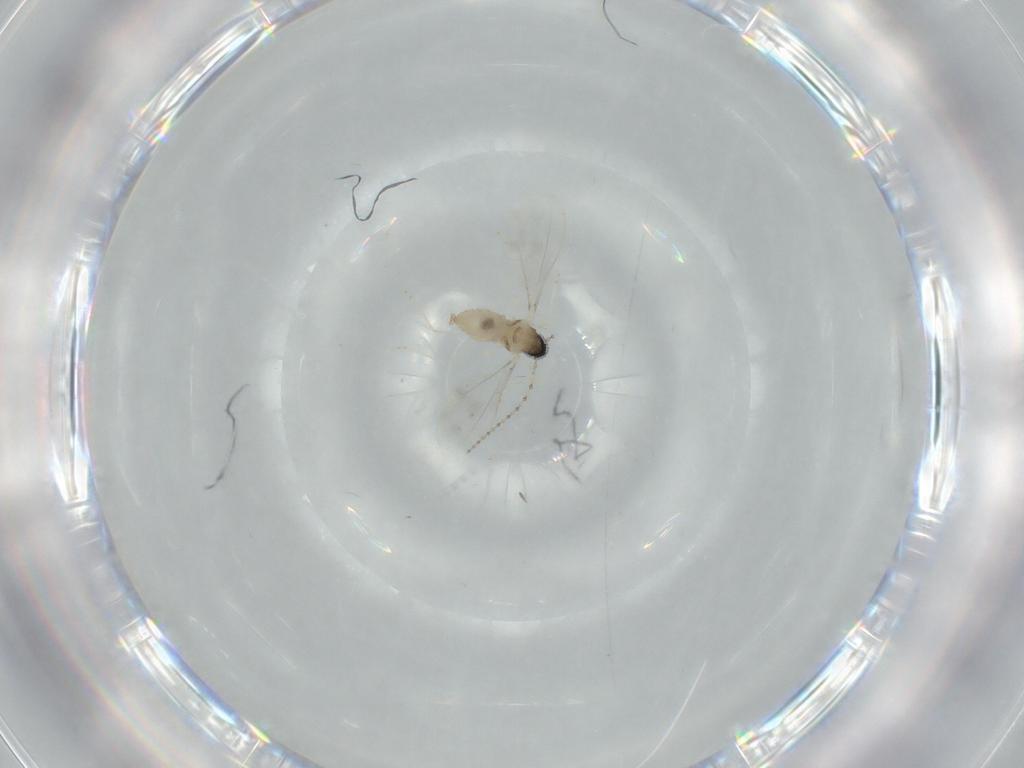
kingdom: Animalia
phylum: Arthropoda
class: Insecta
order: Diptera
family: Cecidomyiidae
